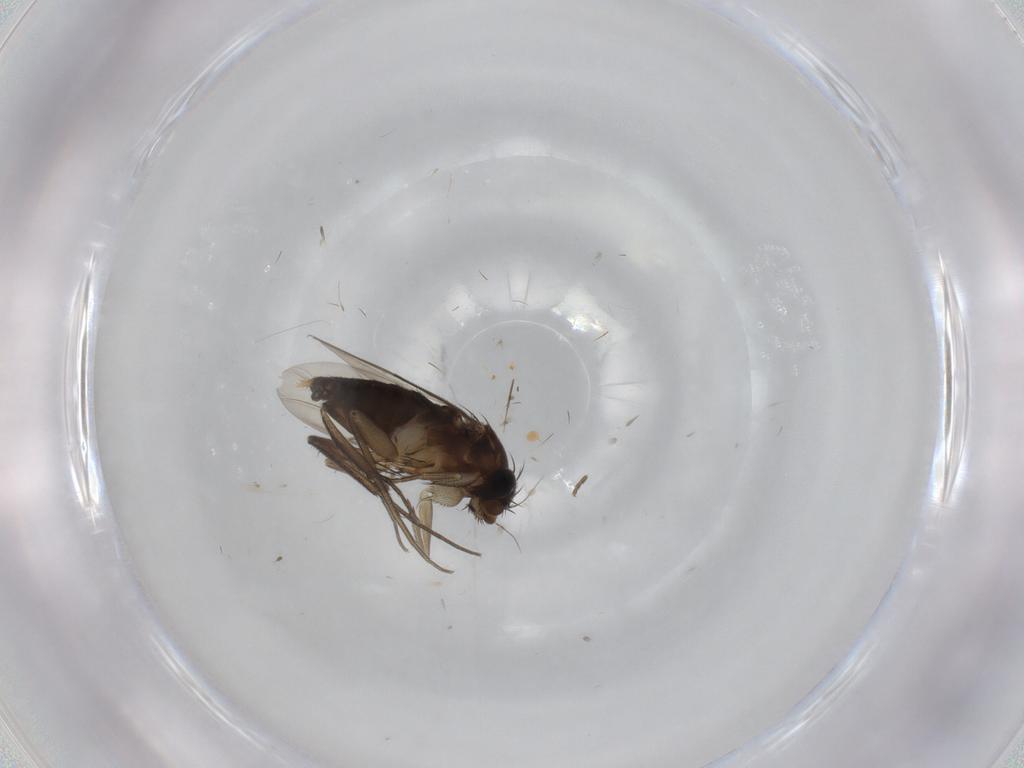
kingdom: Animalia
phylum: Arthropoda
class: Insecta
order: Diptera
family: Phoridae
